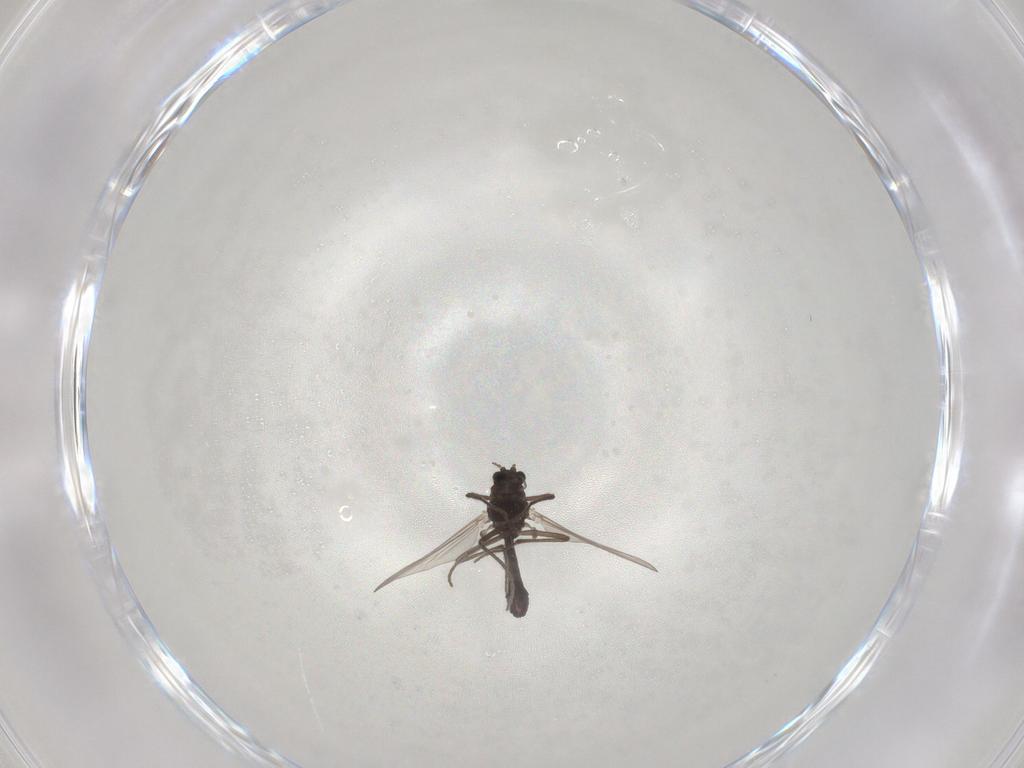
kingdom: Animalia
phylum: Arthropoda
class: Insecta
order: Diptera
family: Chironomidae
